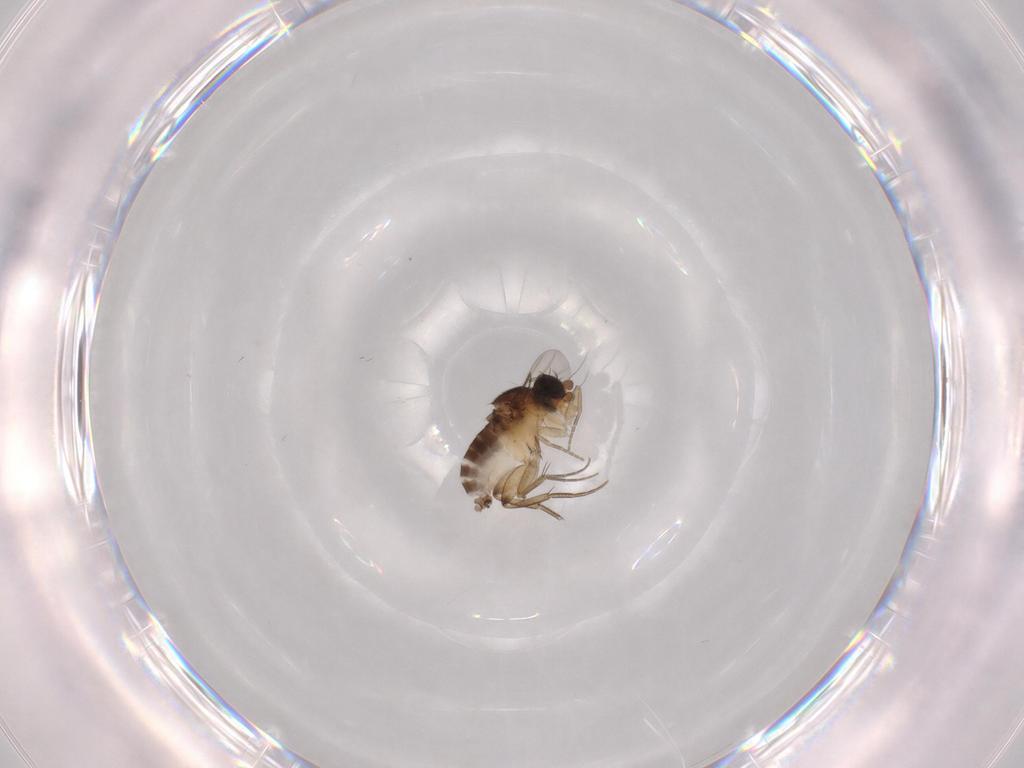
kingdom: Animalia
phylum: Arthropoda
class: Insecta
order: Diptera
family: Phoridae
